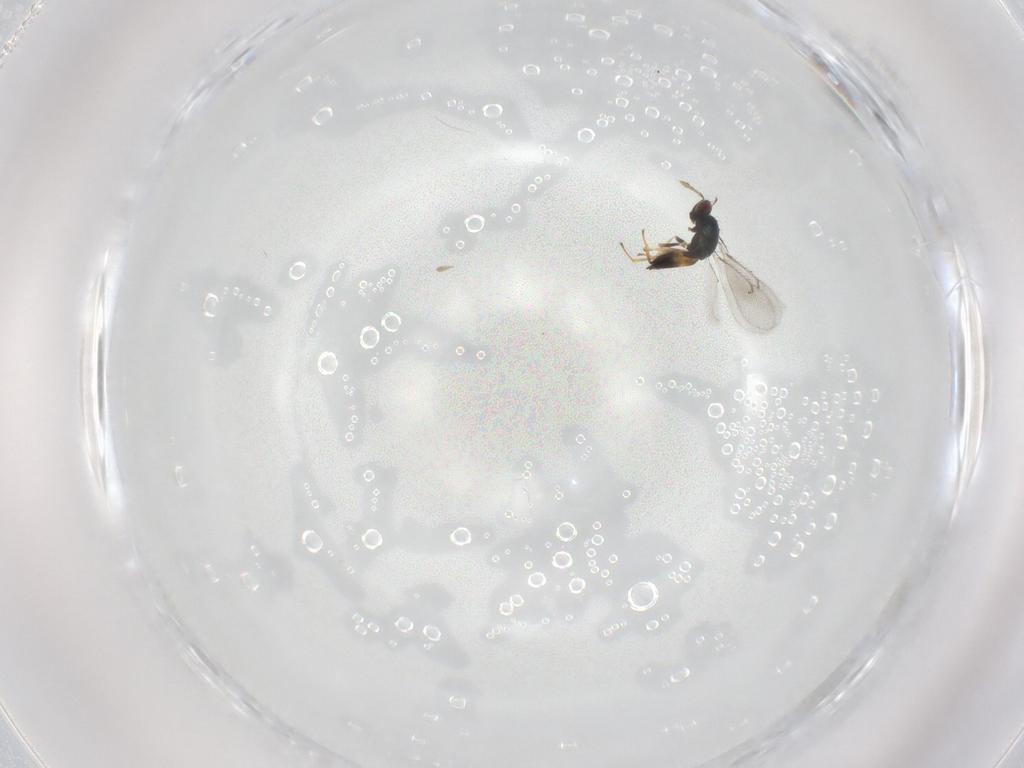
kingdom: Animalia
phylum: Arthropoda
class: Insecta
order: Hymenoptera
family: Eulophidae
